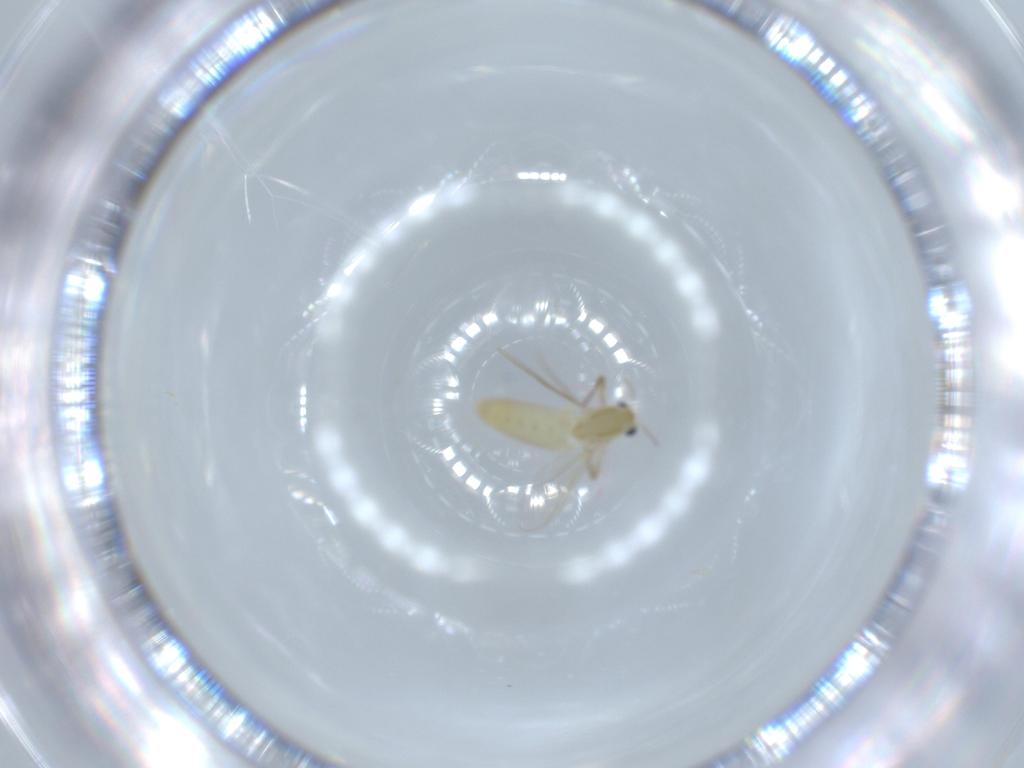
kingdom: Animalia
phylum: Arthropoda
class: Insecta
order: Diptera
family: Chironomidae
